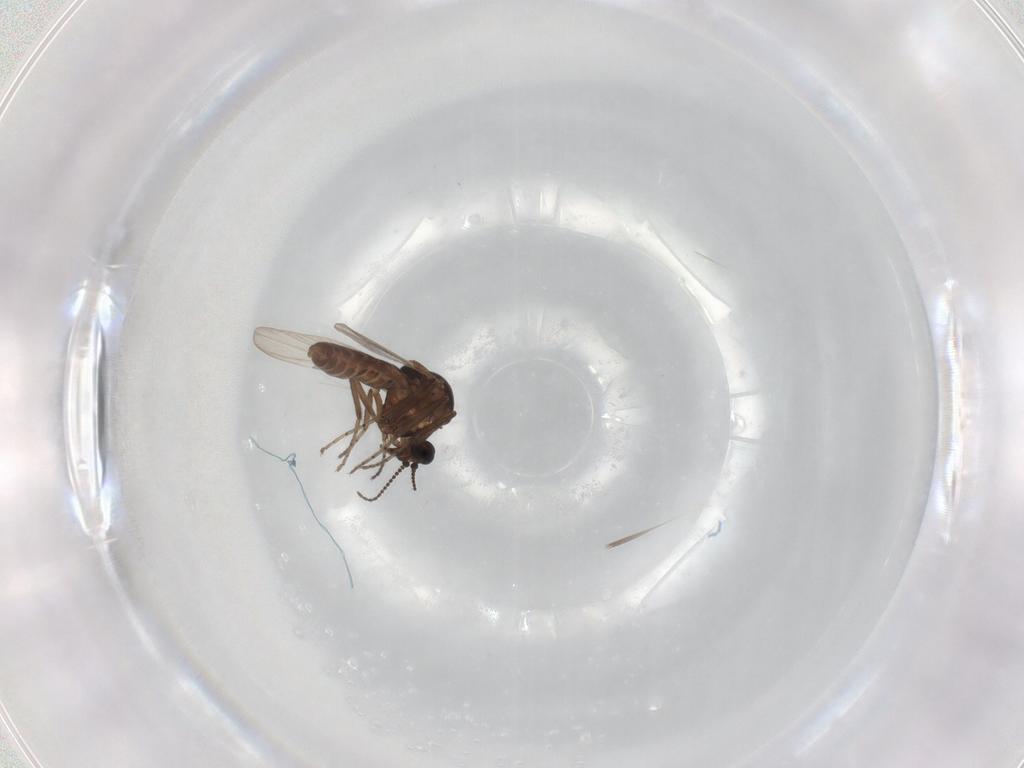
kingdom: Animalia
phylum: Arthropoda
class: Insecta
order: Diptera
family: Ceratopogonidae
